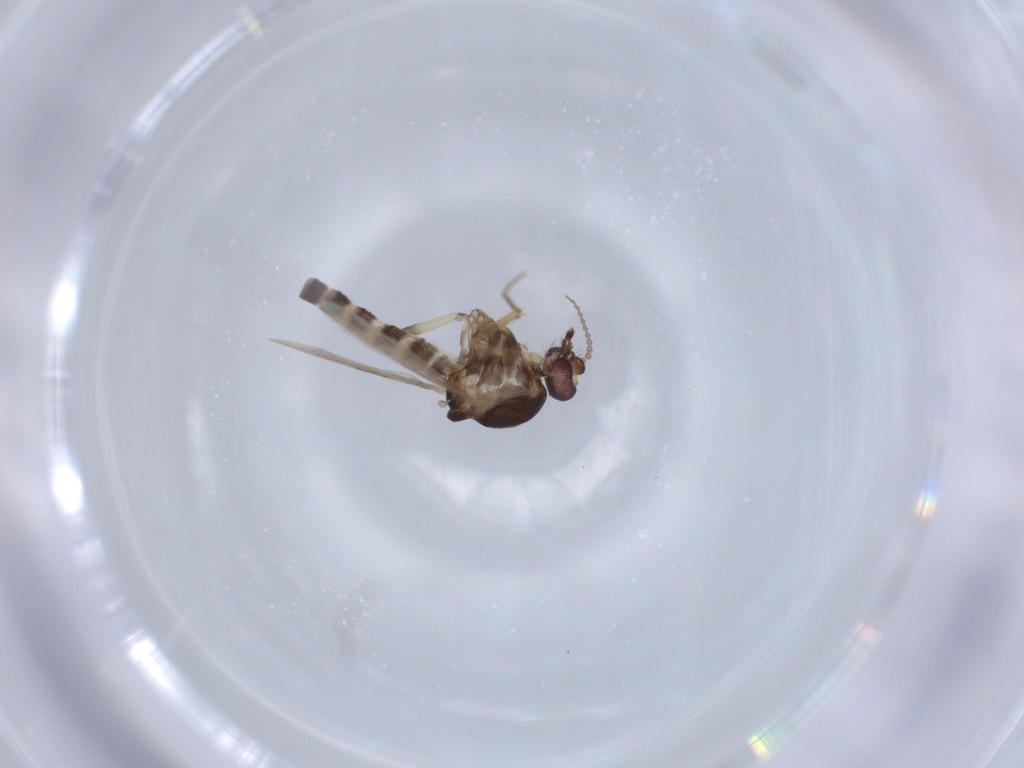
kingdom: Animalia
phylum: Arthropoda
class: Insecta
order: Diptera
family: Ceratopogonidae
